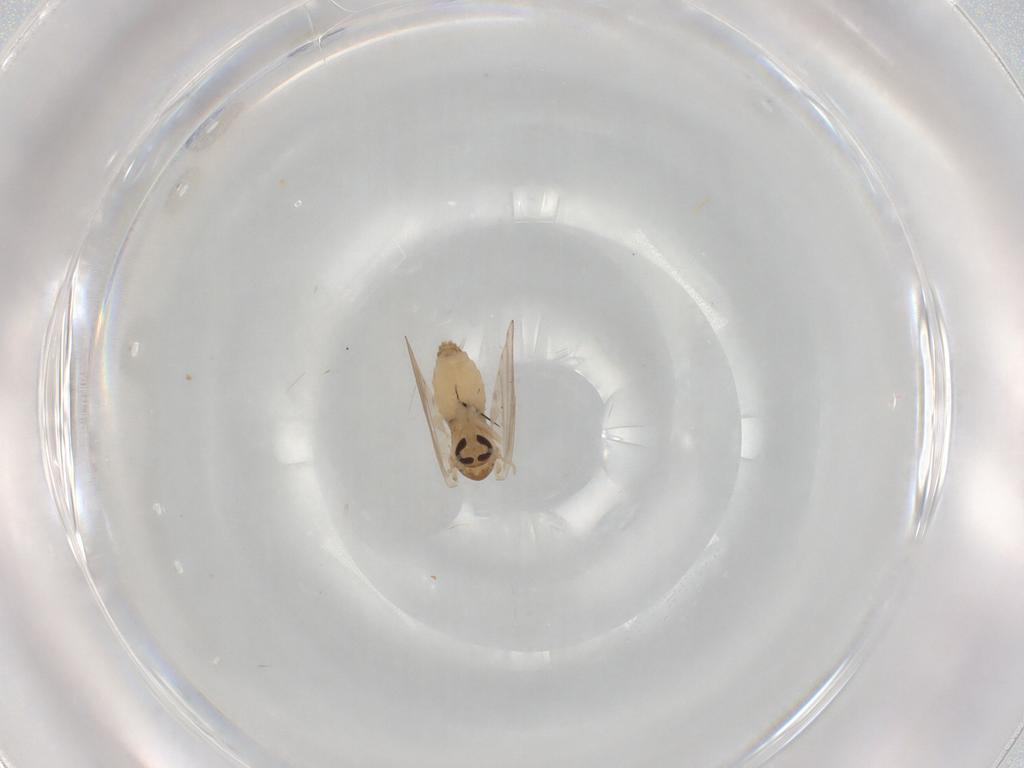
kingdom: Animalia
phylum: Arthropoda
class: Insecta
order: Diptera
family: Psychodidae
